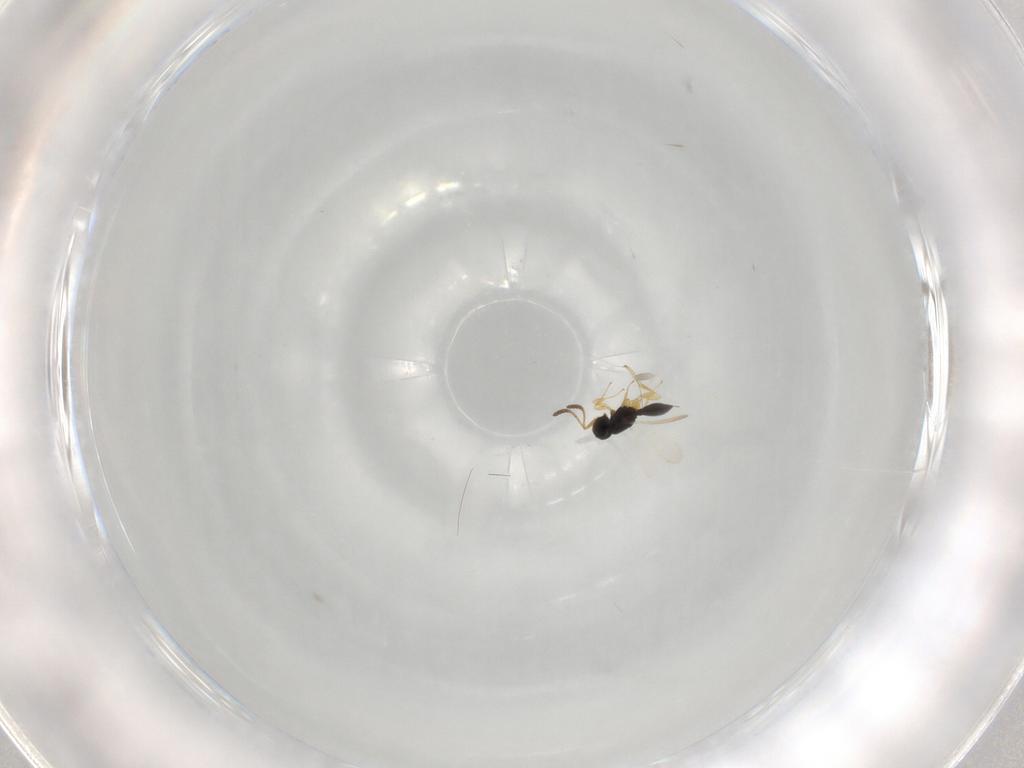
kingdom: Animalia
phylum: Arthropoda
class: Insecta
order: Hymenoptera
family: Scelionidae
